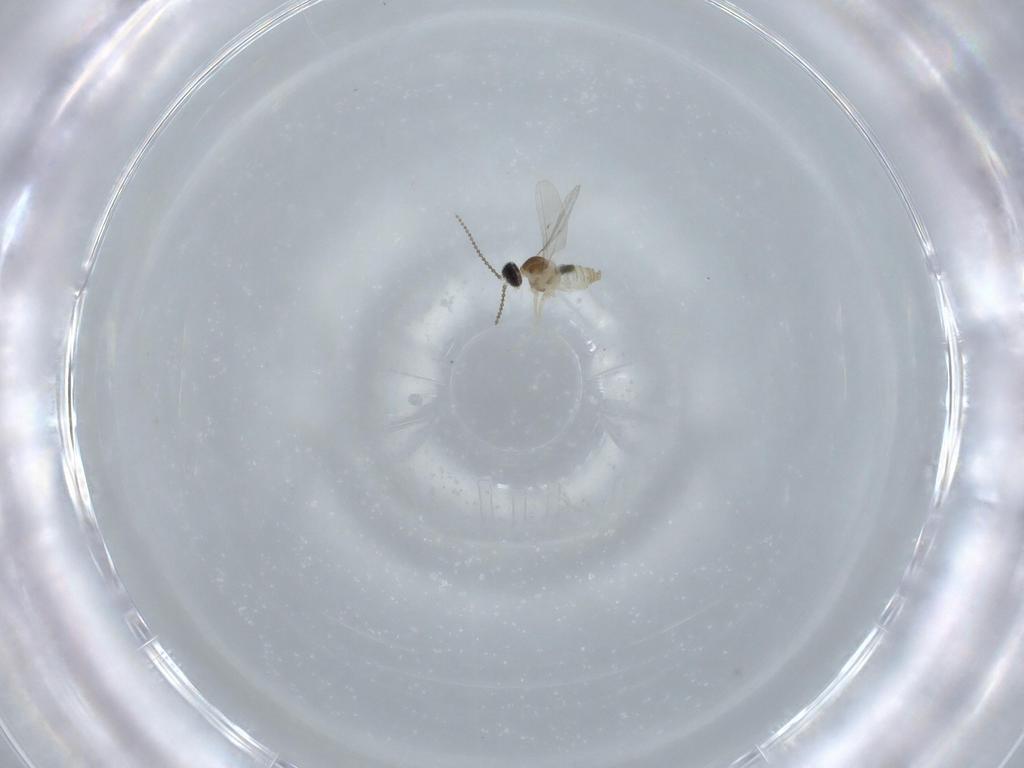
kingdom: Animalia
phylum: Arthropoda
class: Insecta
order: Diptera
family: Cecidomyiidae
